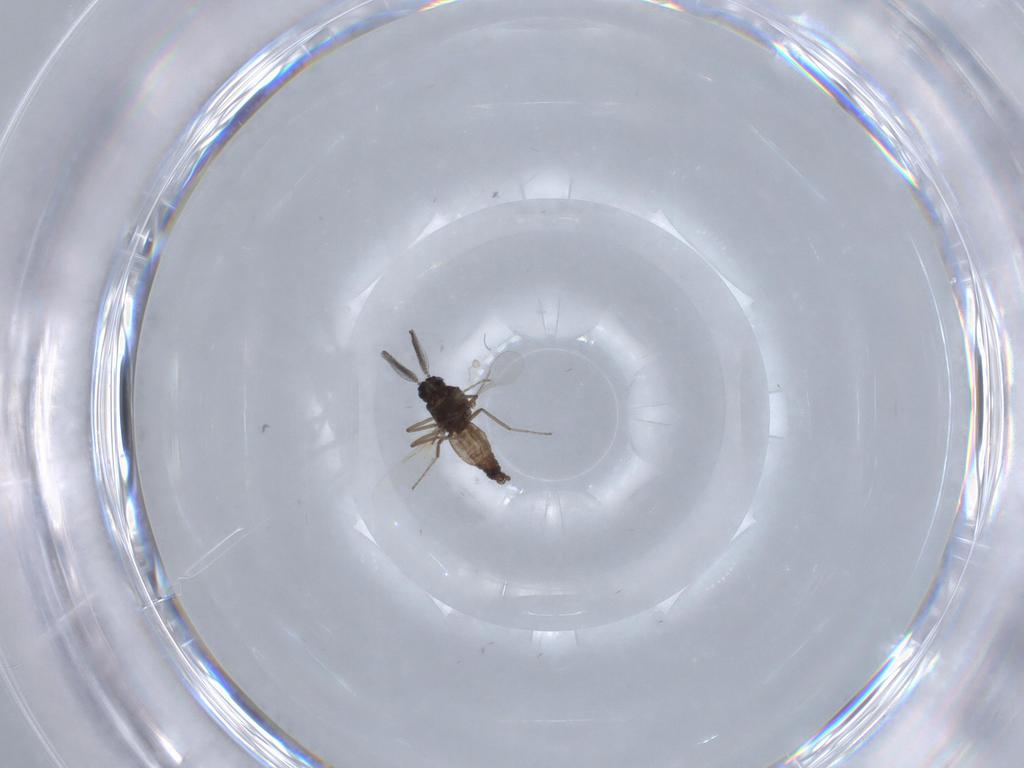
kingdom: Animalia
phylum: Arthropoda
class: Insecta
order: Diptera
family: Ceratopogonidae
